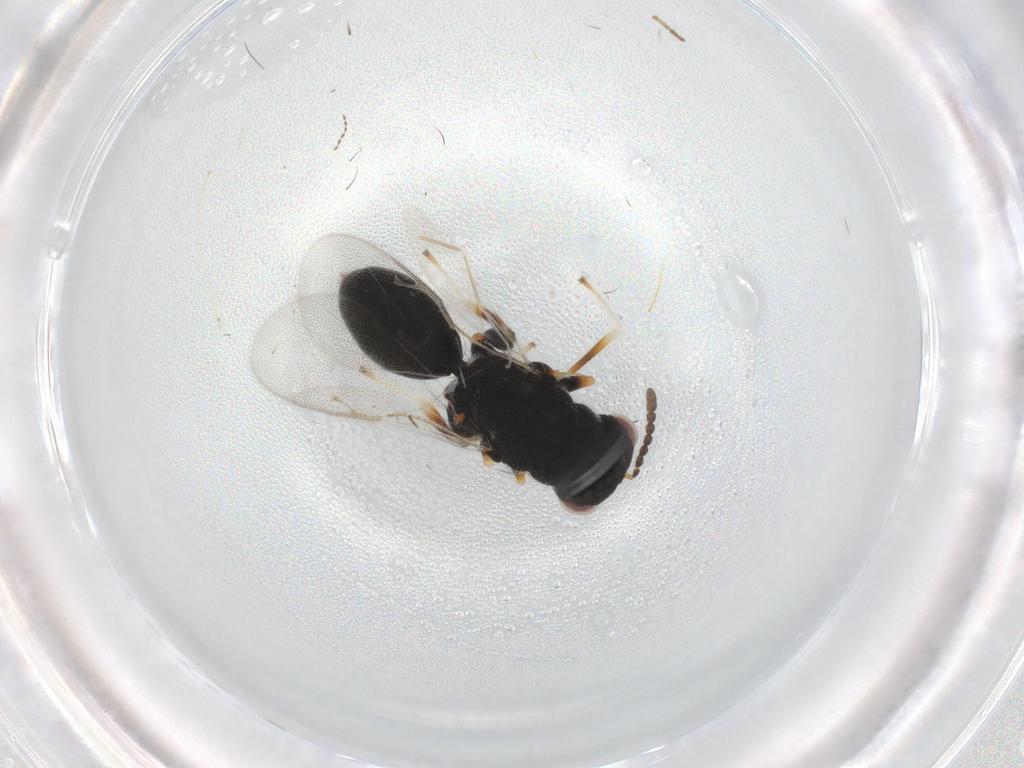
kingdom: Animalia
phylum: Arthropoda
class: Insecta
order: Hymenoptera
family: Eurytomidae
